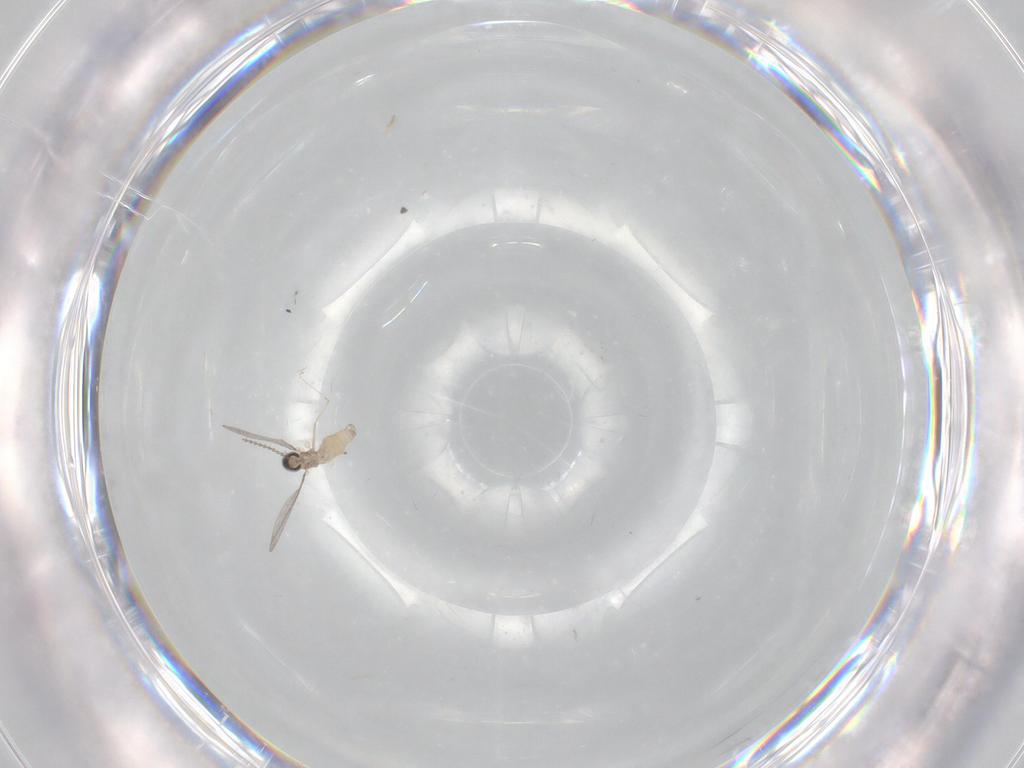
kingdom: Animalia
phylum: Arthropoda
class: Insecta
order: Diptera
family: Cecidomyiidae
